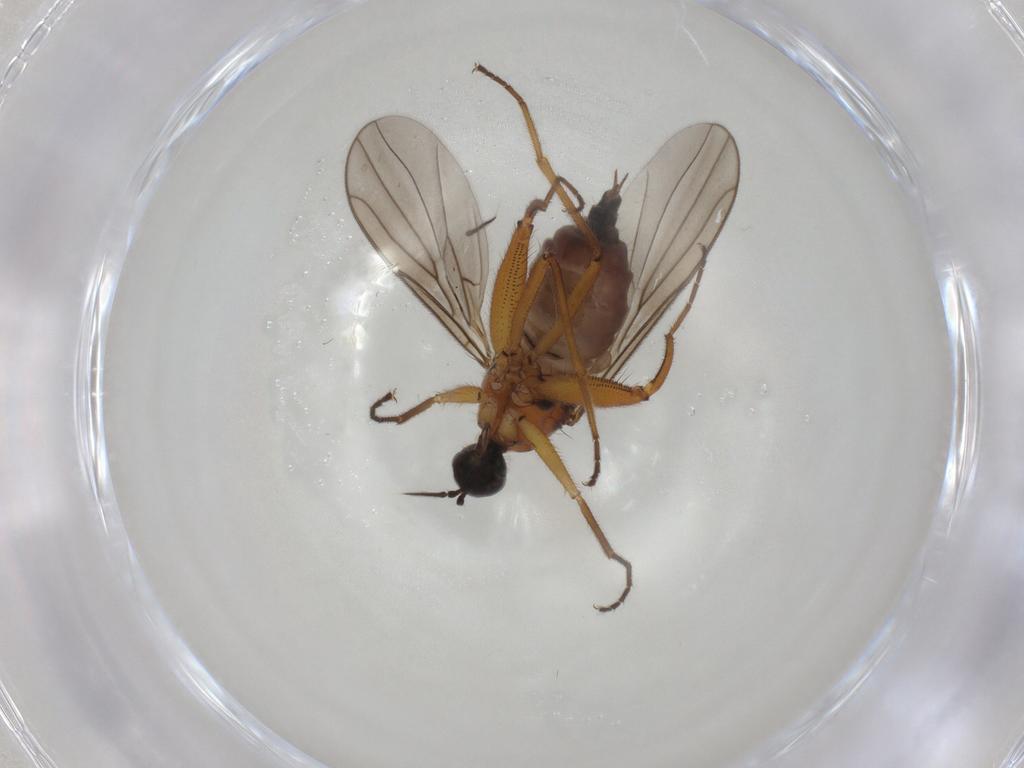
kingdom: Animalia
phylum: Arthropoda
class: Insecta
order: Diptera
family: Hybotidae
